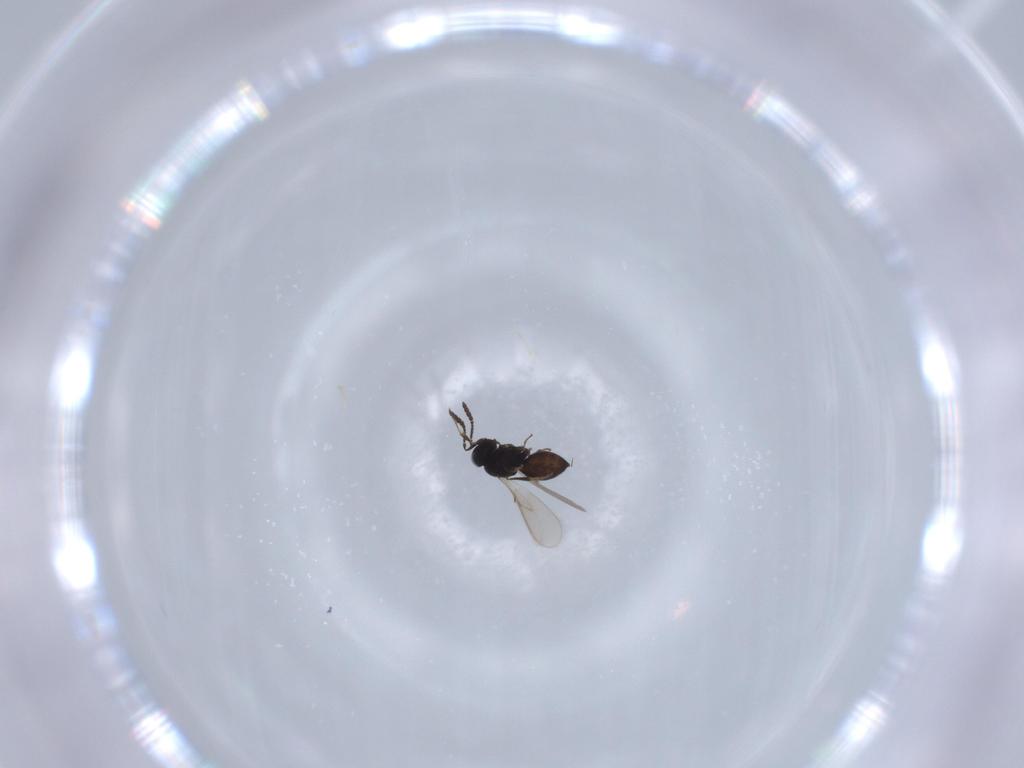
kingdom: Animalia
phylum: Arthropoda
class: Insecta
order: Hymenoptera
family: Scelionidae
